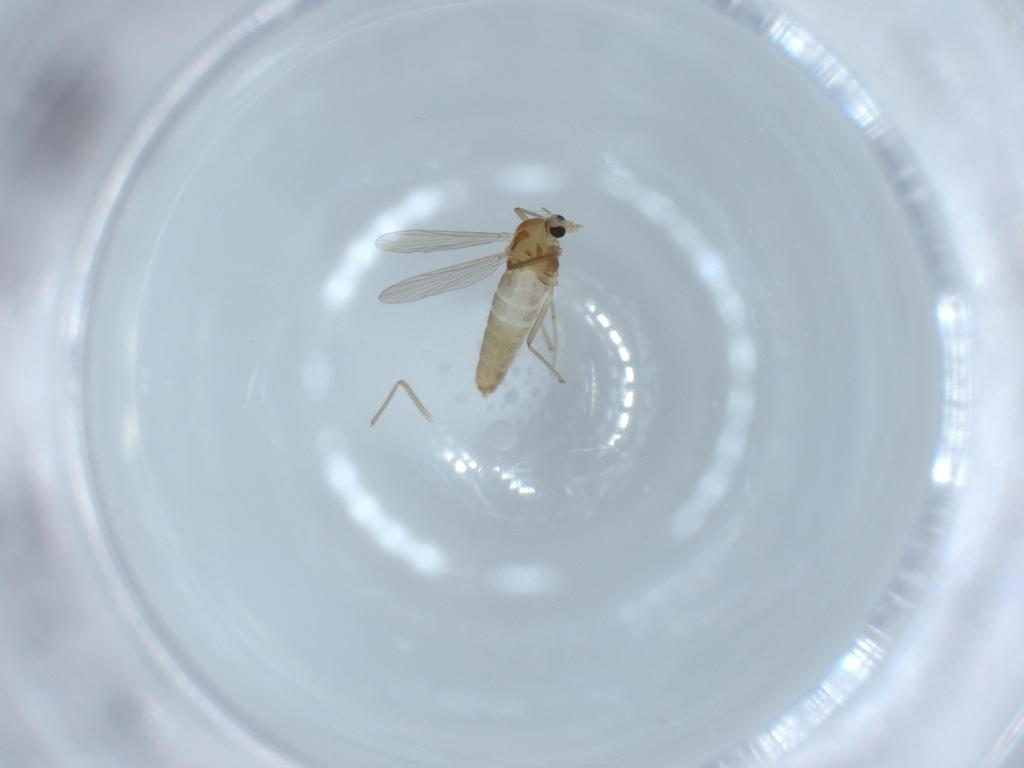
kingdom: Animalia
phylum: Arthropoda
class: Insecta
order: Diptera
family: Chironomidae
